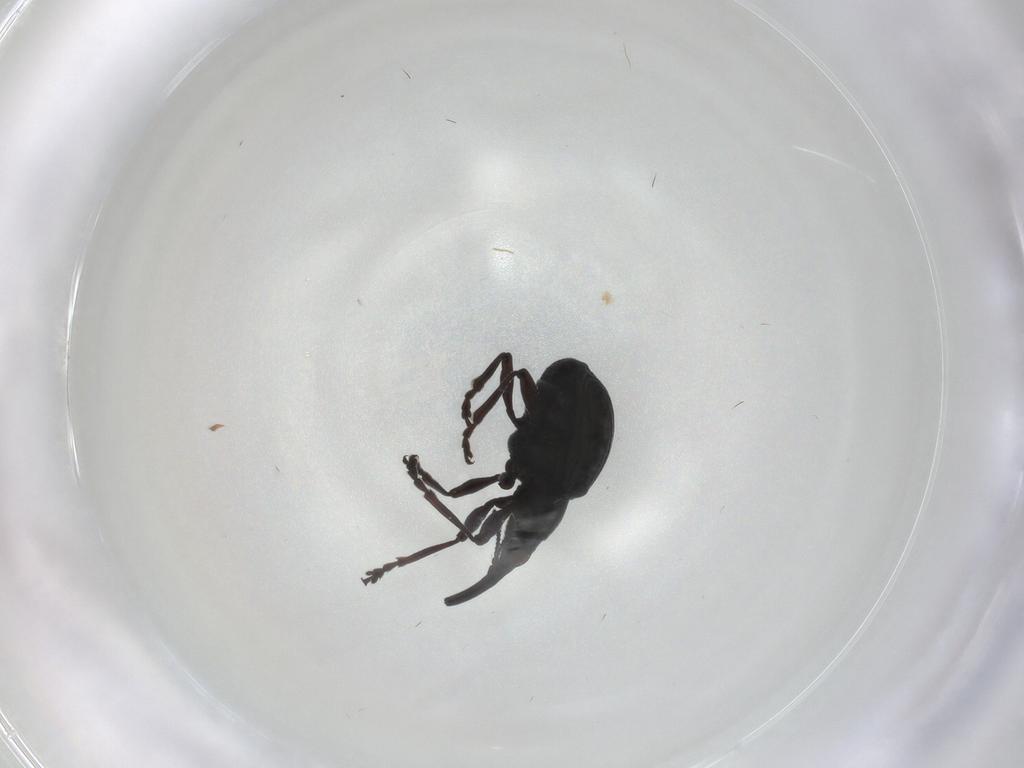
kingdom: Animalia
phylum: Arthropoda
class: Insecta
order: Coleoptera
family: Brentidae
